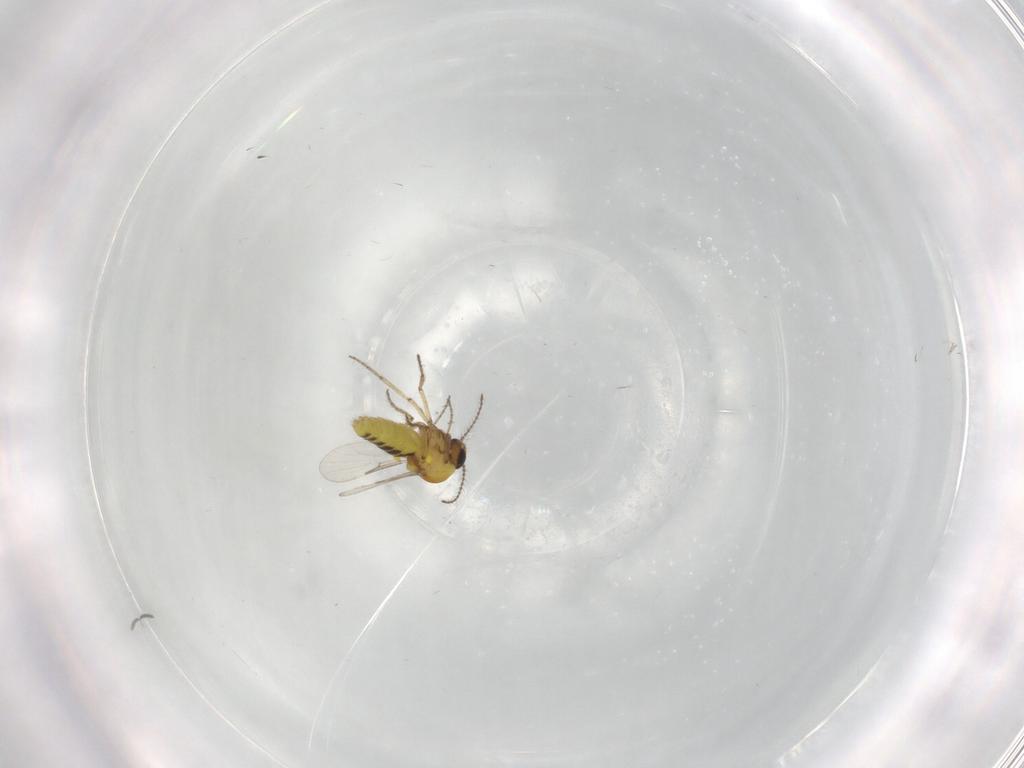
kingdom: Animalia
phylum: Arthropoda
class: Insecta
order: Diptera
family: Ceratopogonidae
